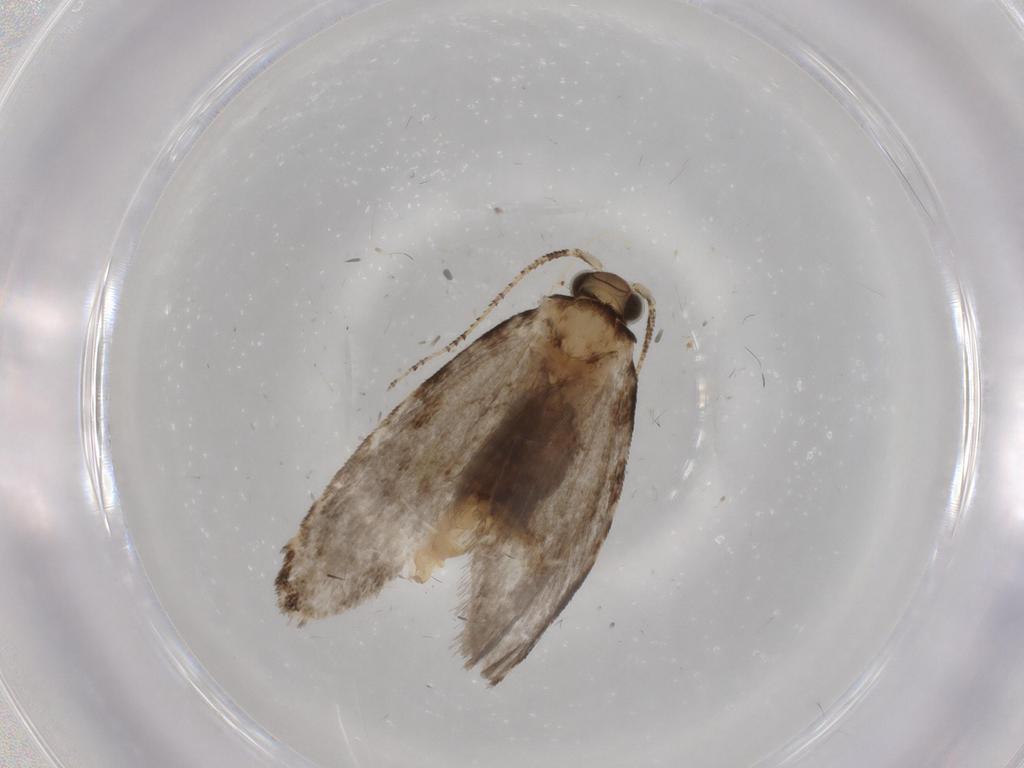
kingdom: Animalia
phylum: Arthropoda
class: Insecta
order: Lepidoptera
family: Tineidae
